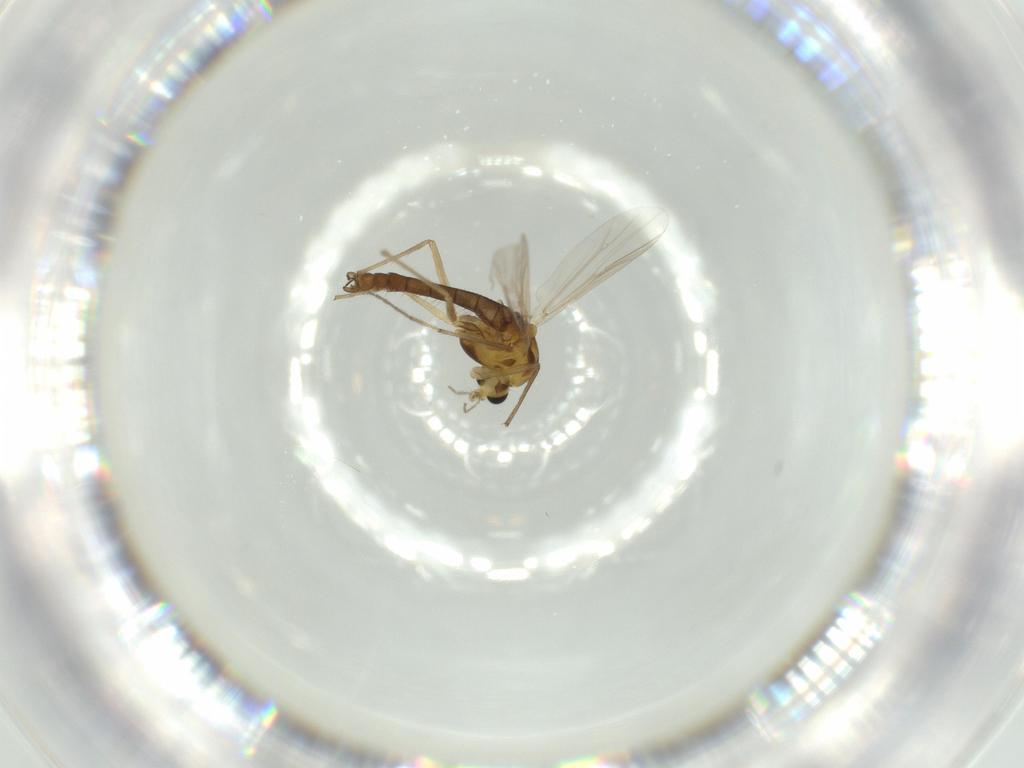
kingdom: Animalia
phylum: Arthropoda
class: Insecta
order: Diptera
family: Chironomidae
